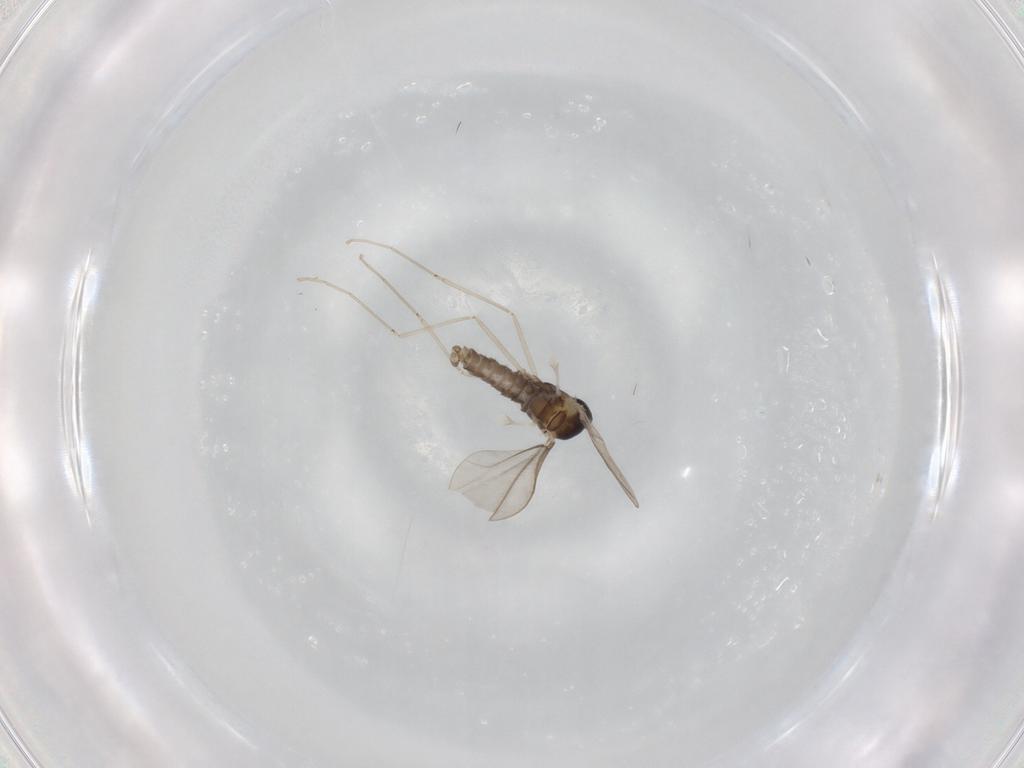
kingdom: Animalia
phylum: Arthropoda
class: Insecta
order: Diptera
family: Cecidomyiidae
